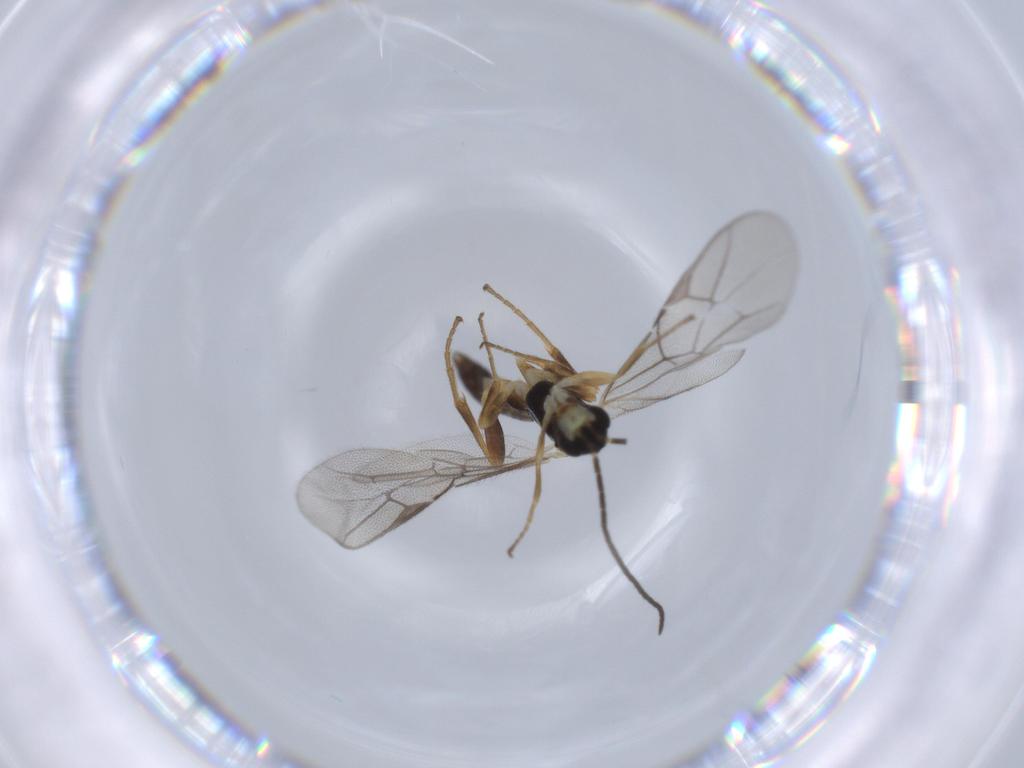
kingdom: Animalia
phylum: Arthropoda
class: Insecta
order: Hymenoptera
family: Ichneumonidae
